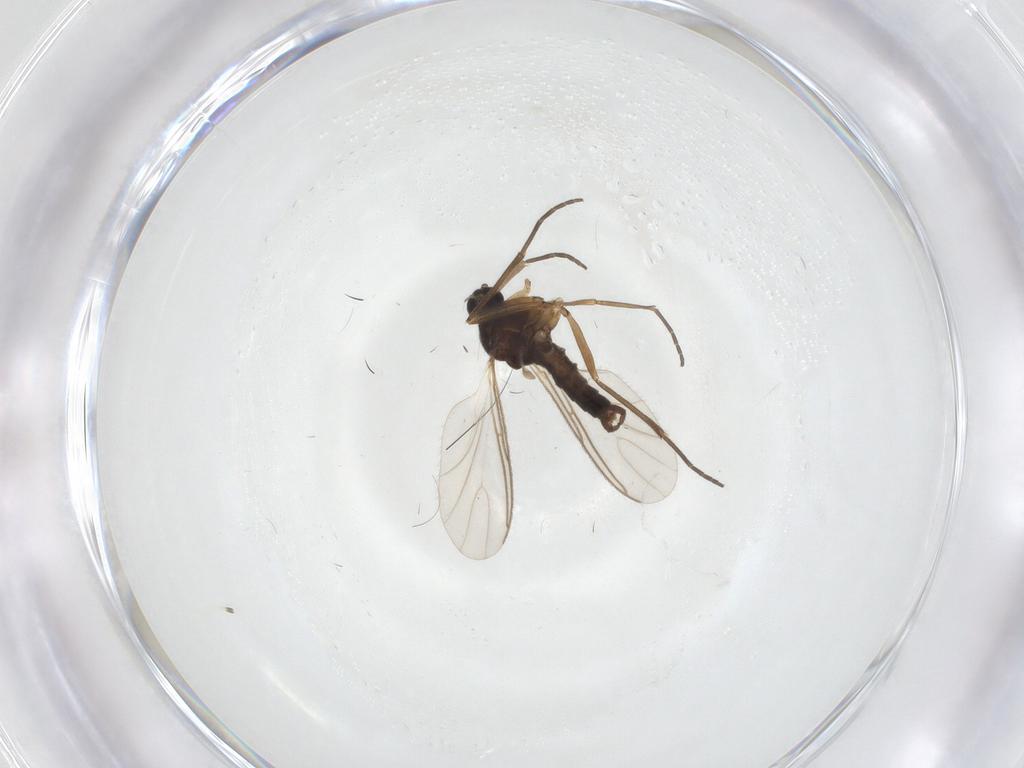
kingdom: Animalia
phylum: Arthropoda
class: Insecta
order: Diptera
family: Sciaridae
